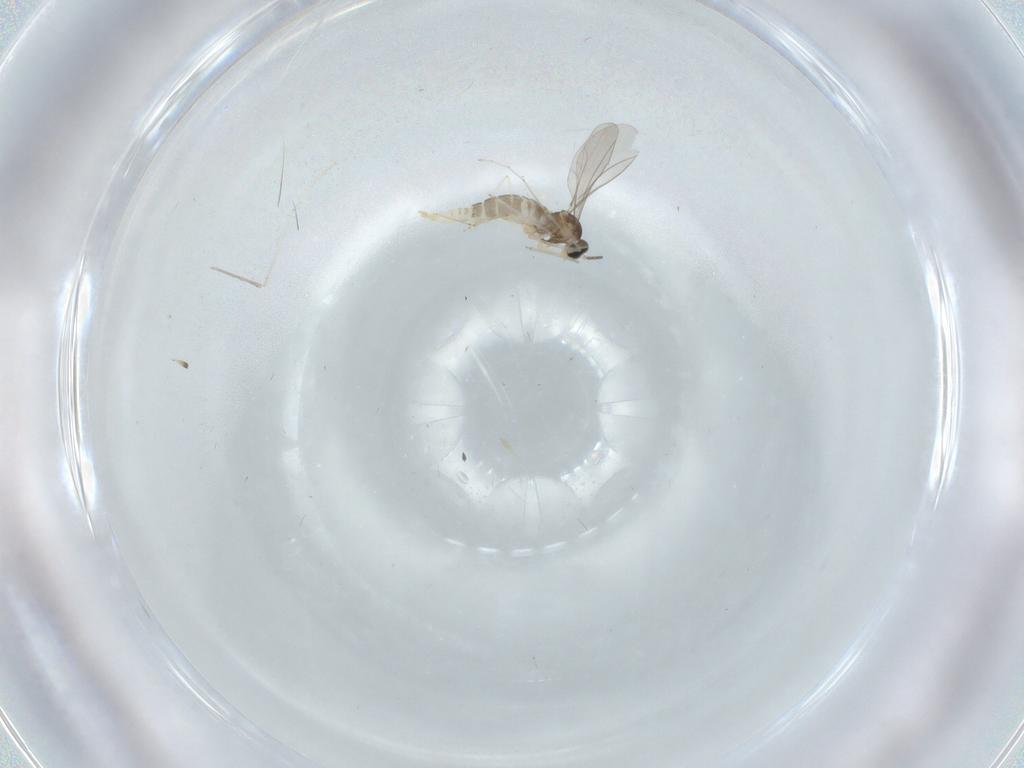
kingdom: Animalia
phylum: Arthropoda
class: Insecta
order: Diptera
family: Cecidomyiidae
